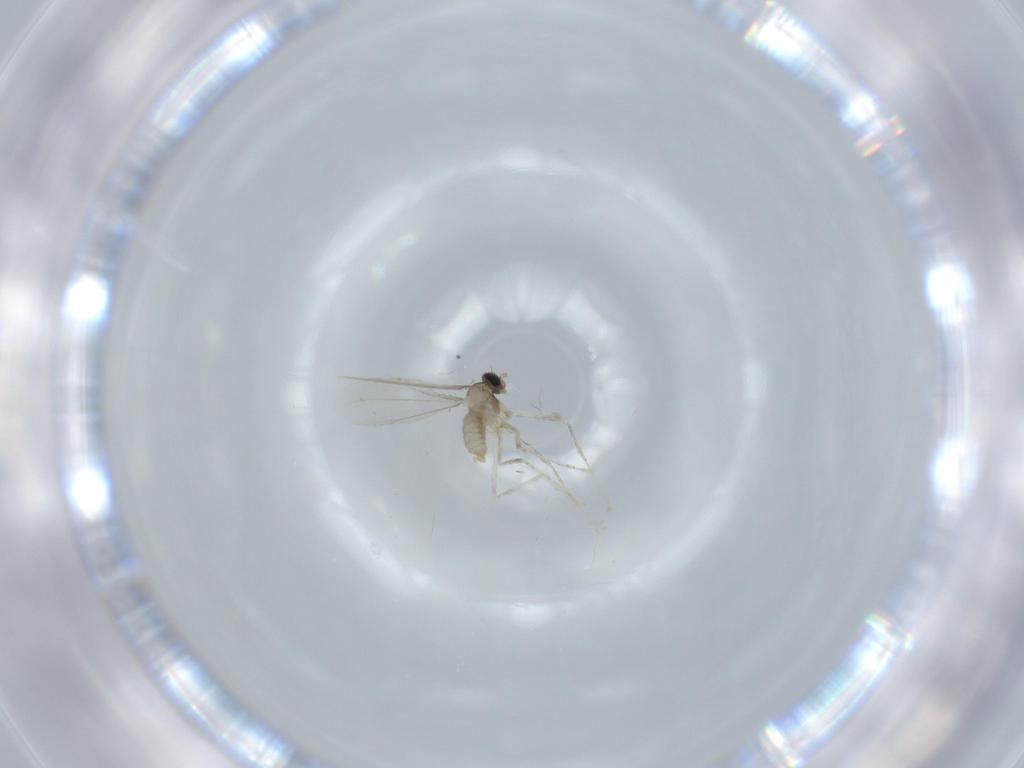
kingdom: Animalia
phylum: Arthropoda
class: Insecta
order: Diptera
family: Cecidomyiidae
